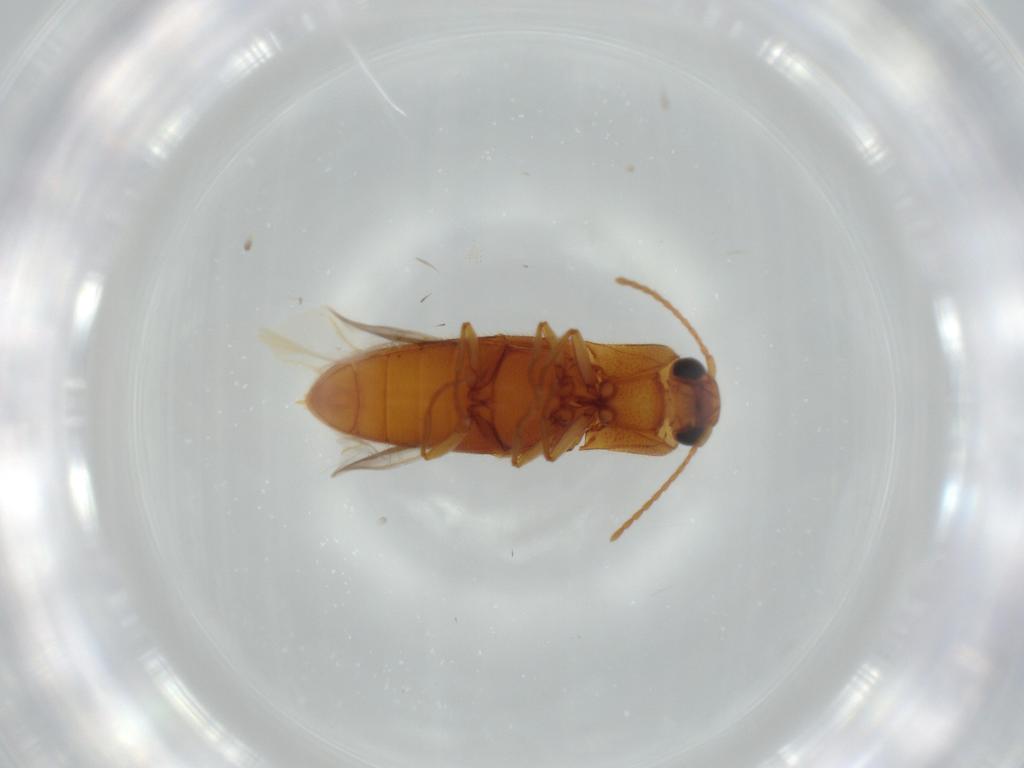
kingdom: Animalia
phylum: Arthropoda
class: Insecta
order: Coleoptera
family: Elateridae
